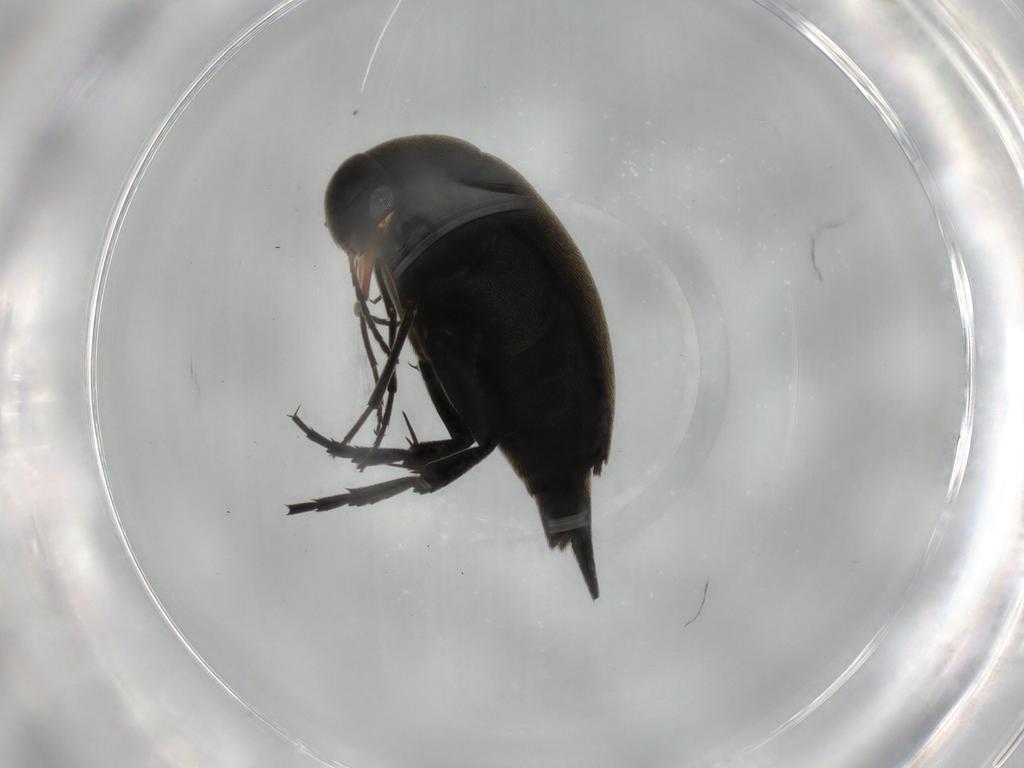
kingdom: Animalia
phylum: Arthropoda
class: Insecta
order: Coleoptera
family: Mordellidae
